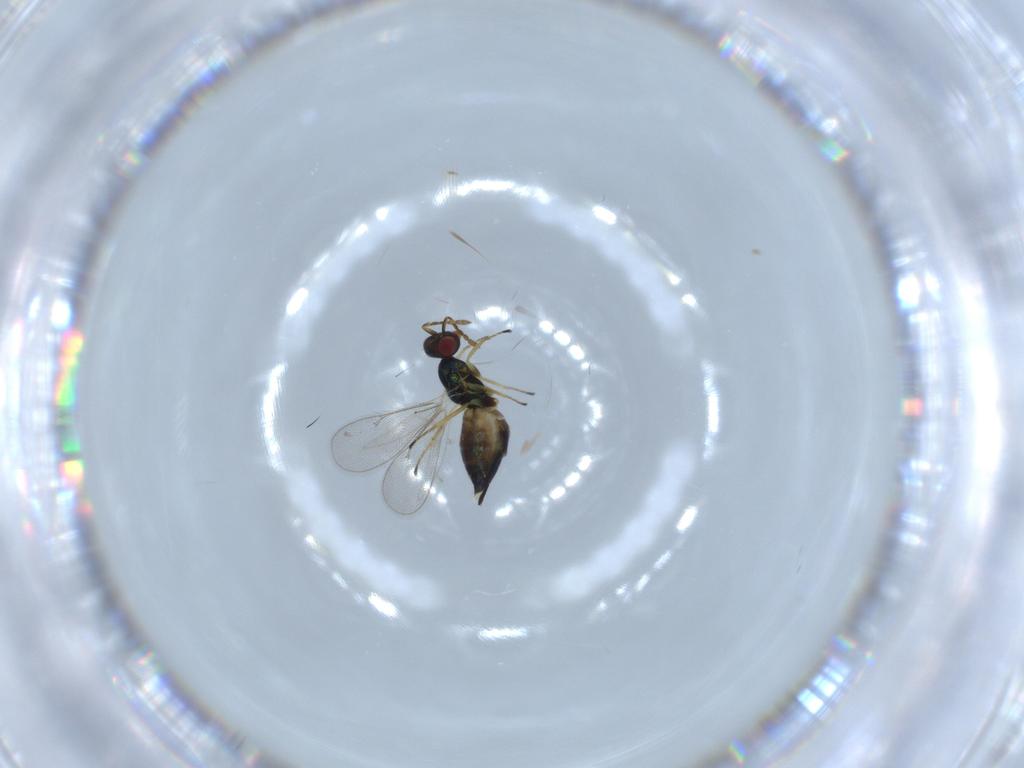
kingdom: Animalia
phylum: Arthropoda
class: Insecta
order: Hymenoptera
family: Eulophidae
